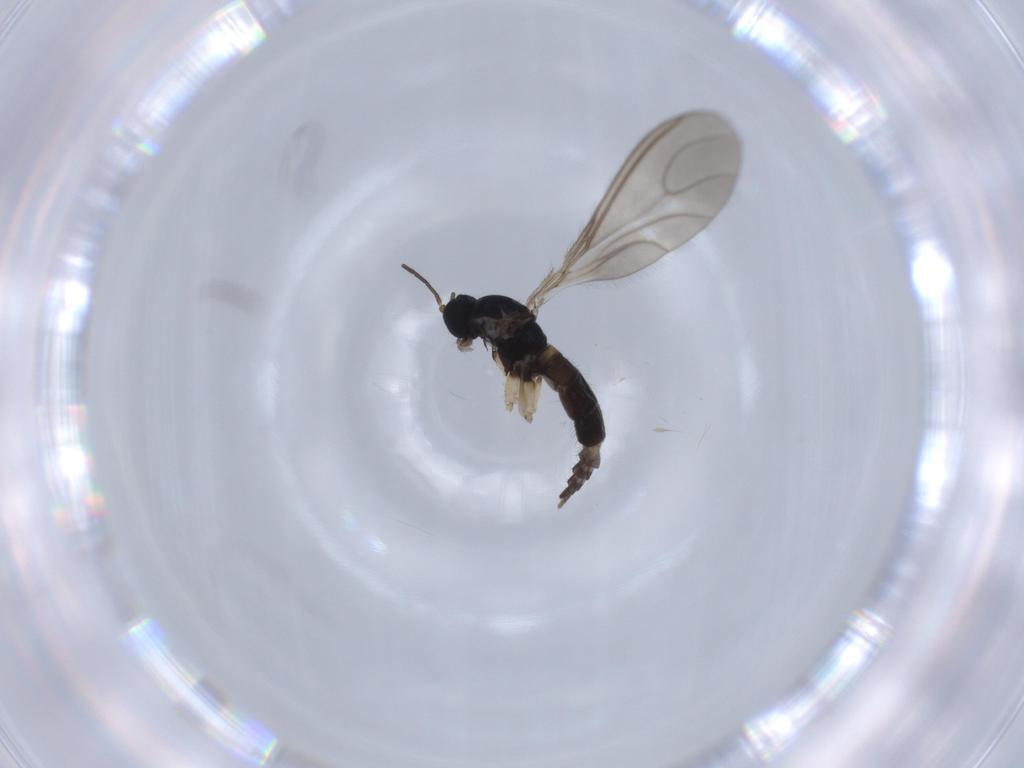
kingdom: Animalia
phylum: Arthropoda
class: Insecta
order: Diptera
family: Sciaridae
